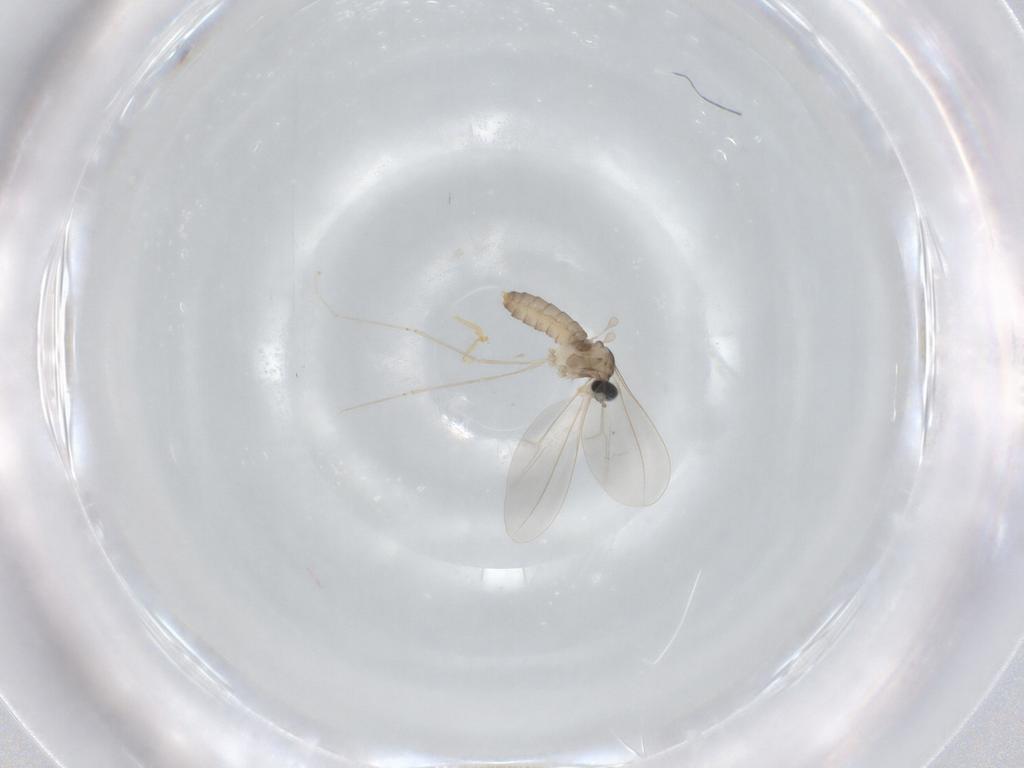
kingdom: Animalia
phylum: Arthropoda
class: Insecta
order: Diptera
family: Cecidomyiidae
